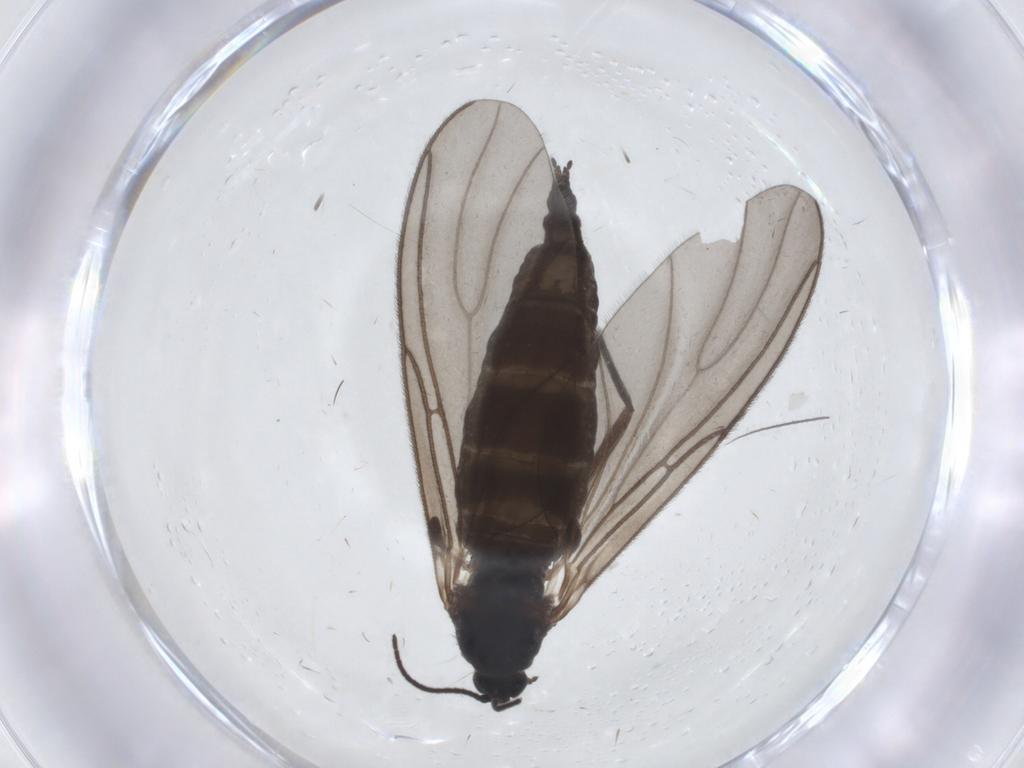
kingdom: Animalia
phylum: Arthropoda
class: Insecta
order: Diptera
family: Sciaridae
